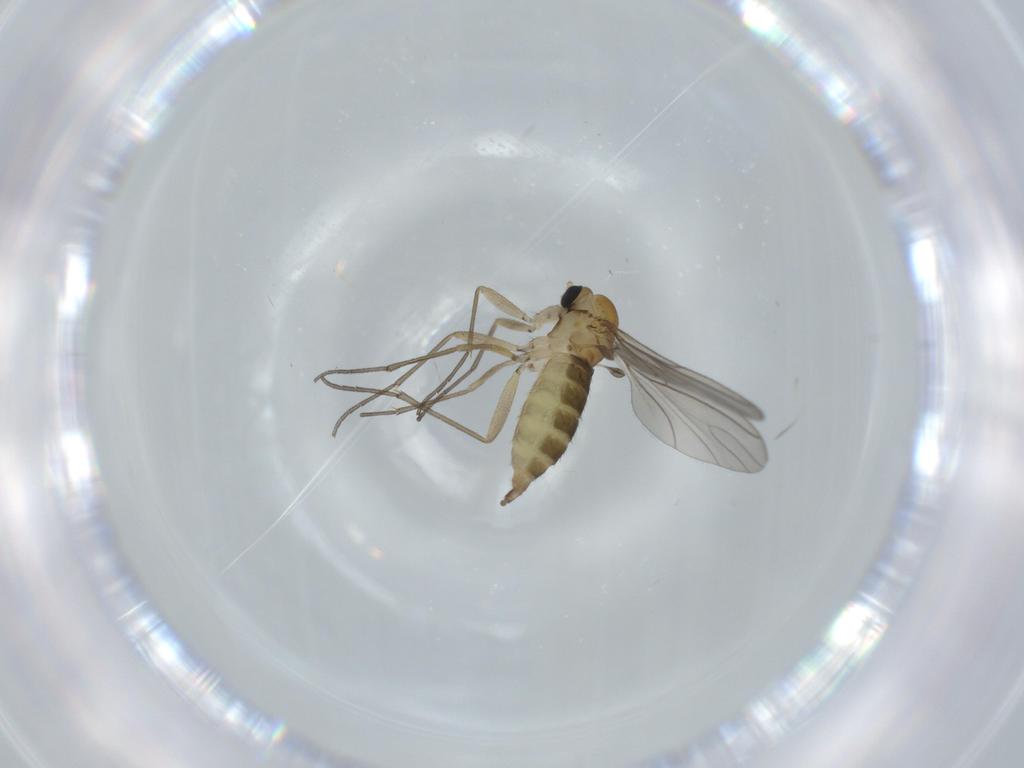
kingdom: Animalia
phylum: Arthropoda
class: Insecta
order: Diptera
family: Sciaridae
